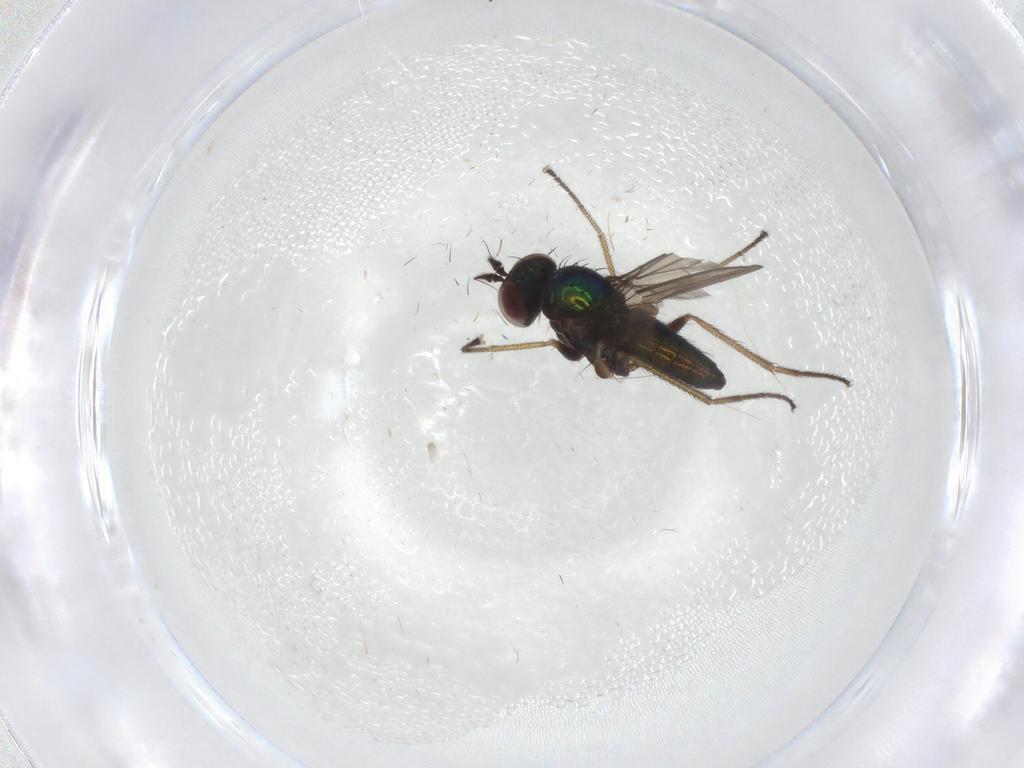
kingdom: Animalia
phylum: Arthropoda
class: Insecta
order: Diptera
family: Dolichopodidae
